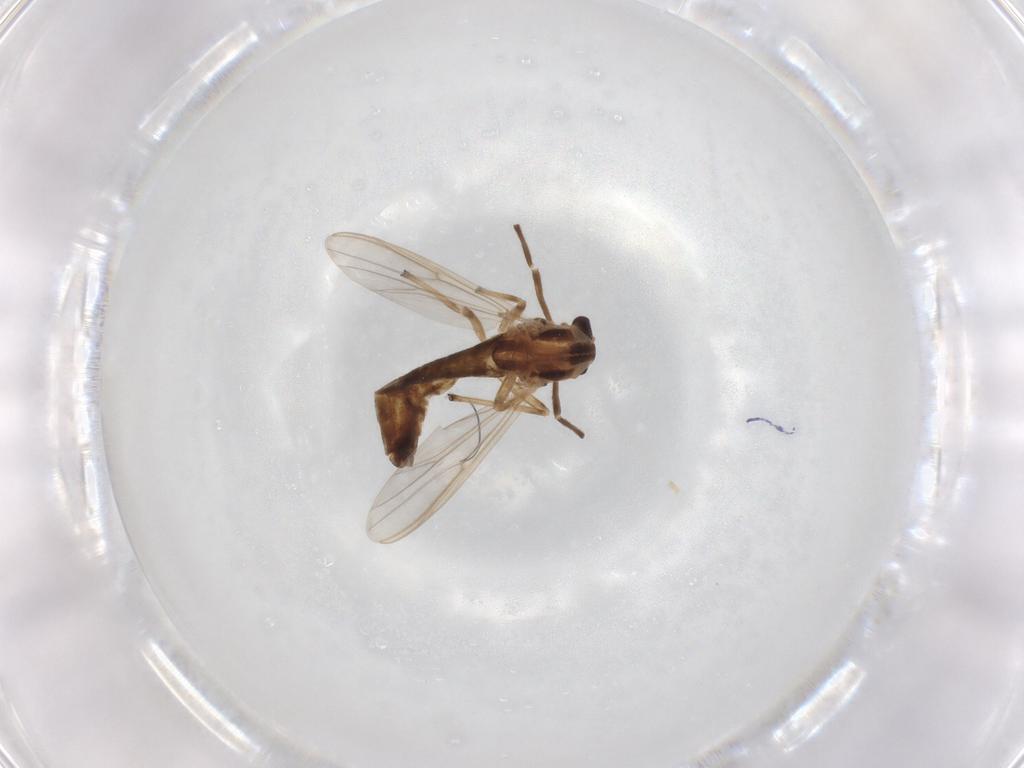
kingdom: Animalia
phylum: Arthropoda
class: Insecta
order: Diptera
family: Chironomidae
